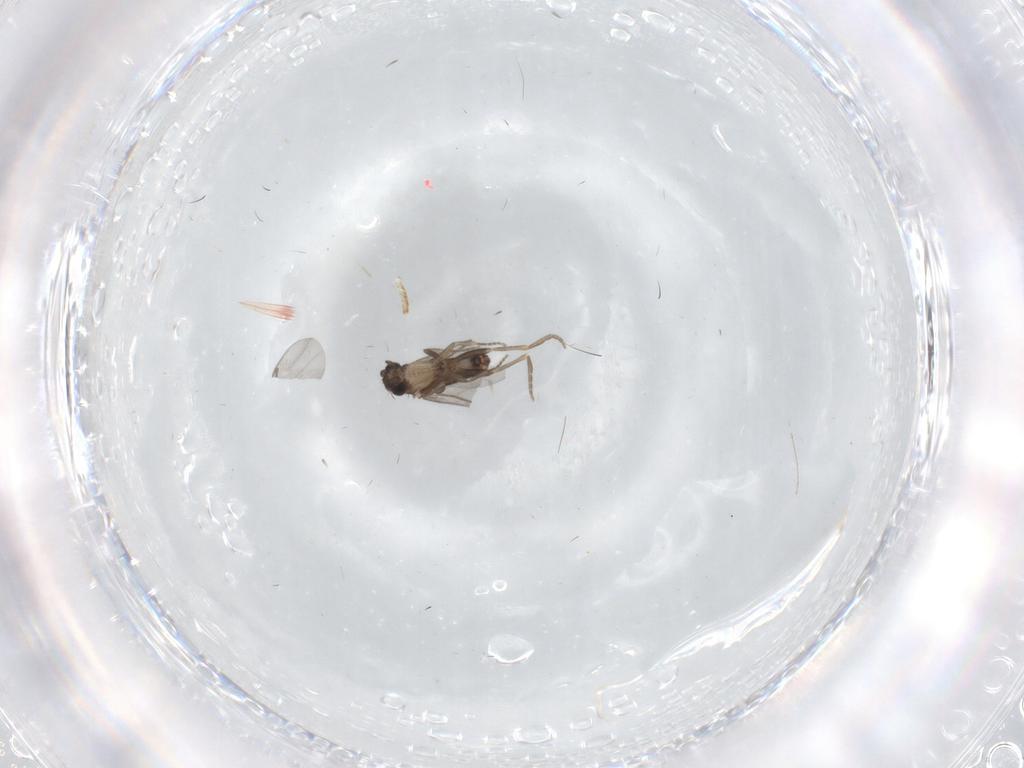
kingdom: Animalia
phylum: Arthropoda
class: Insecta
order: Diptera
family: Psychodidae
